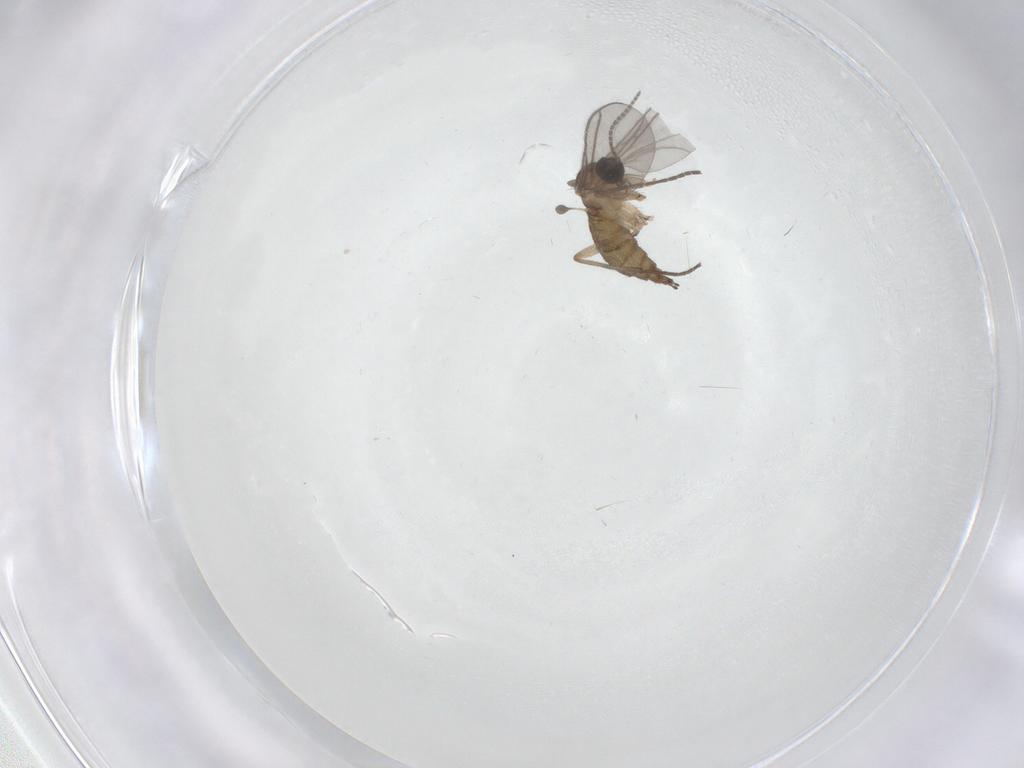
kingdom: Animalia
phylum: Arthropoda
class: Insecta
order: Diptera
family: Sciaridae
